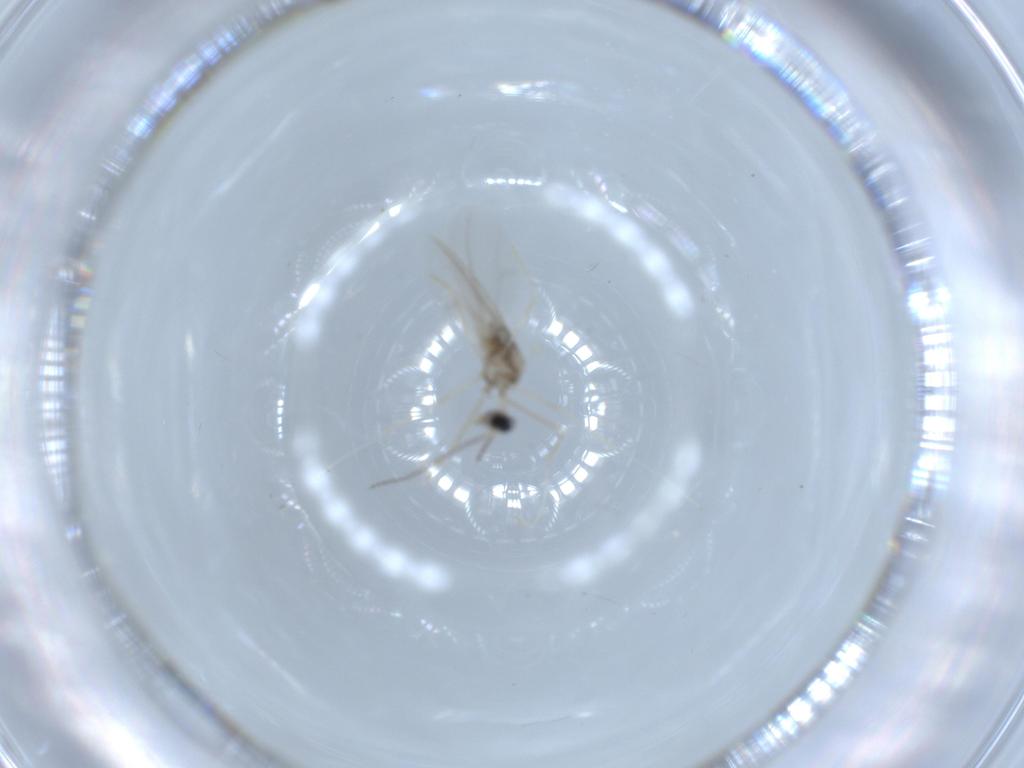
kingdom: Animalia
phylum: Arthropoda
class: Insecta
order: Diptera
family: Cecidomyiidae
